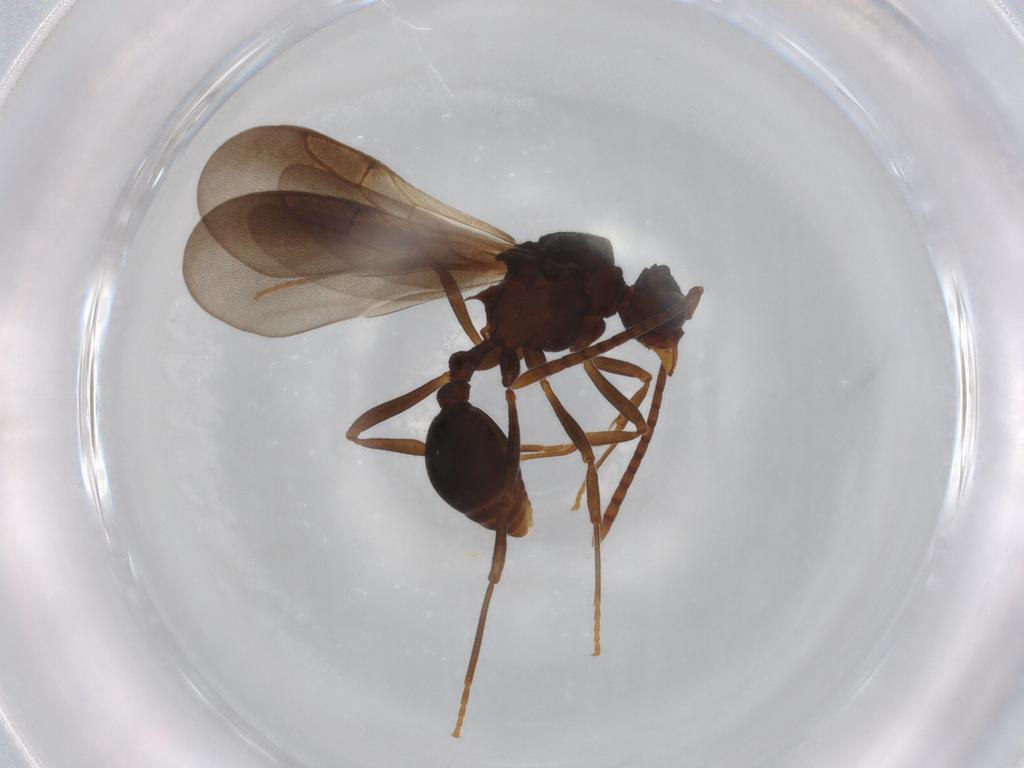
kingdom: Animalia
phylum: Arthropoda
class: Insecta
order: Hymenoptera
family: Formicidae
